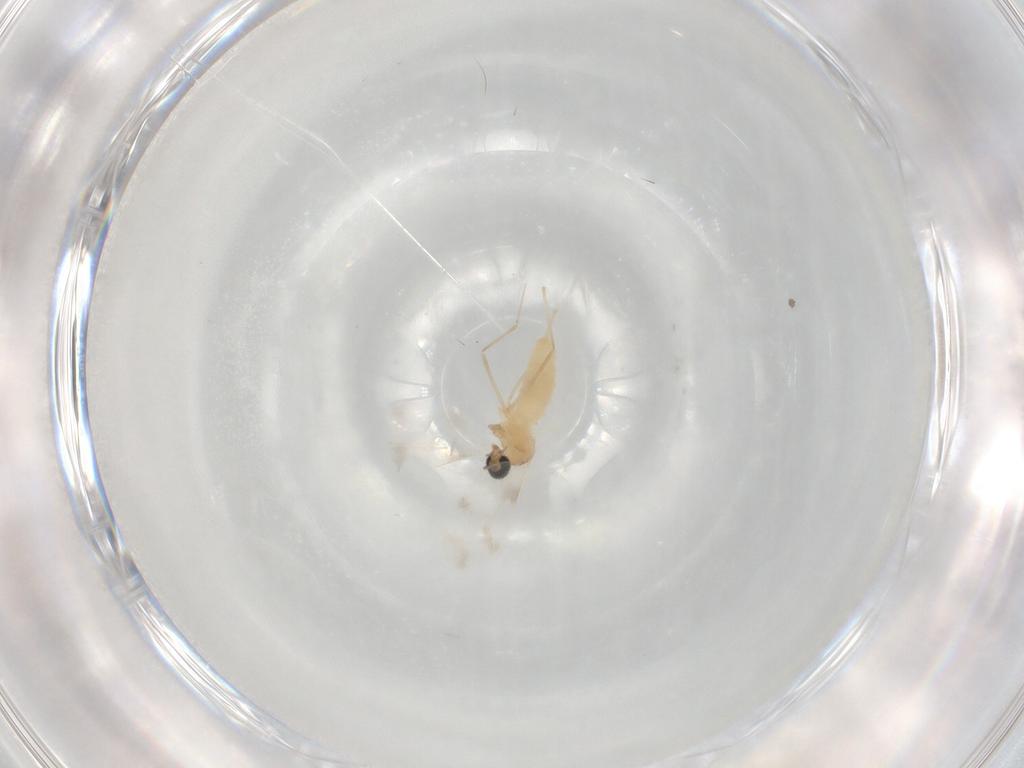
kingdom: Animalia
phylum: Arthropoda
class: Insecta
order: Diptera
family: Chloropidae
